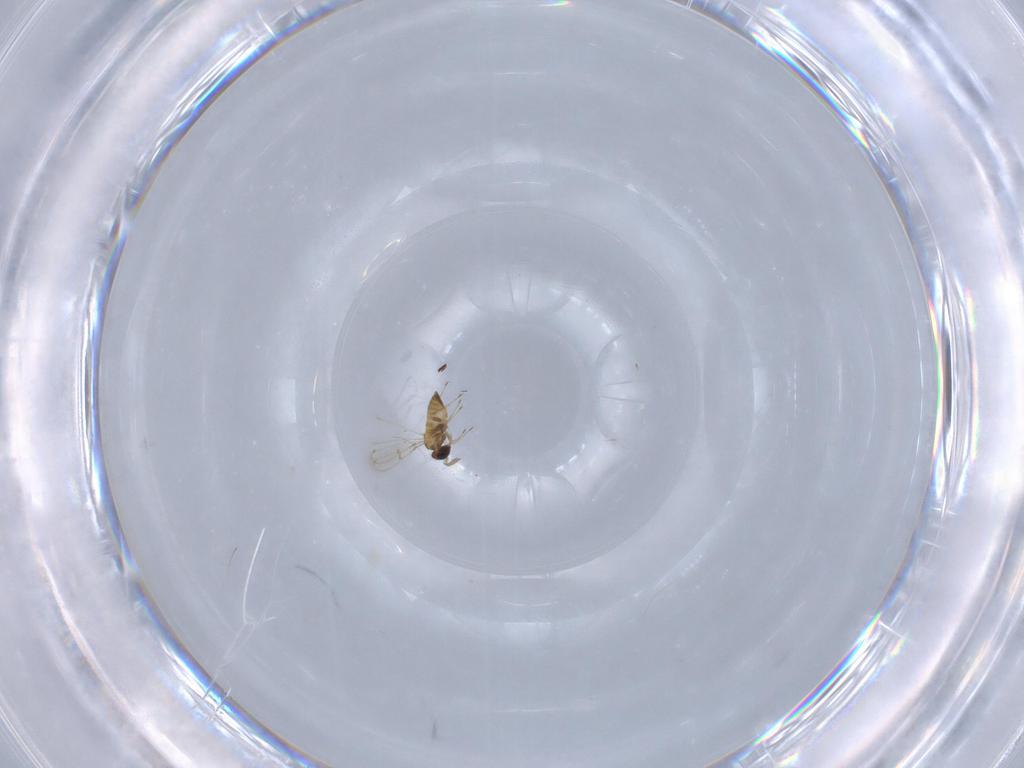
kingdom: Animalia
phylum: Arthropoda
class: Insecta
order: Hymenoptera
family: Trichogrammatidae
